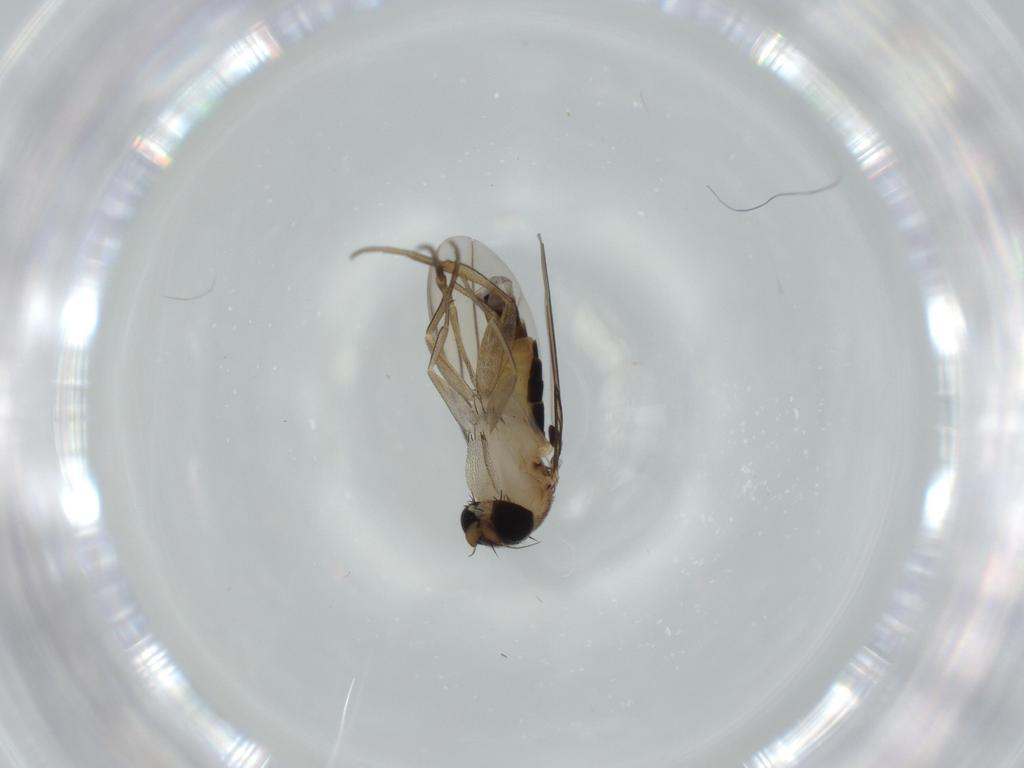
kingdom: Animalia
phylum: Arthropoda
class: Insecta
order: Diptera
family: Phoridae
